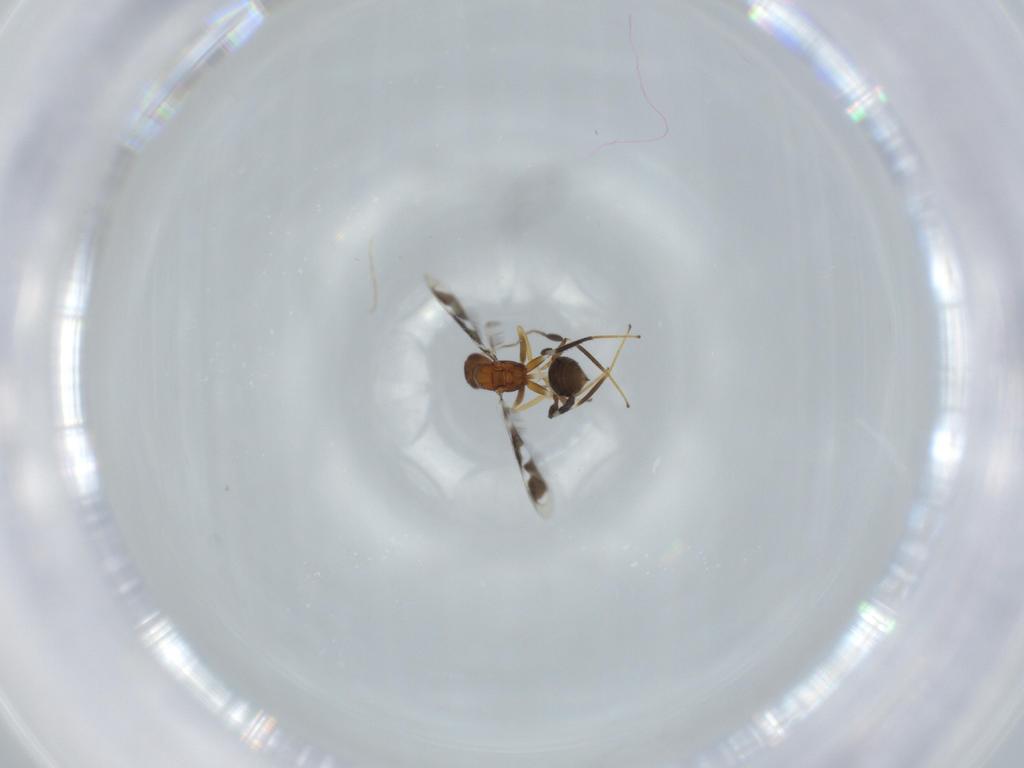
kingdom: Animalia
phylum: Arthropoda
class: Insecta
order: Hymenoptera
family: Mymaridae
